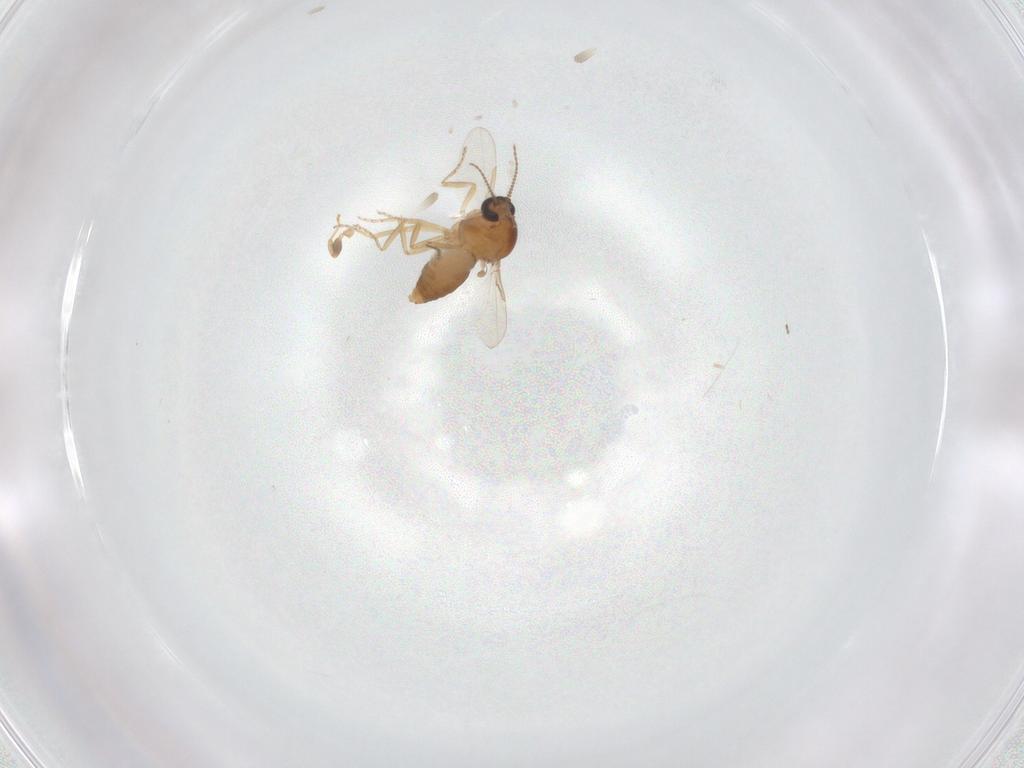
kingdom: Animalia
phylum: Arthropoda
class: Insecta
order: Diptera
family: Ceratopogonidae
